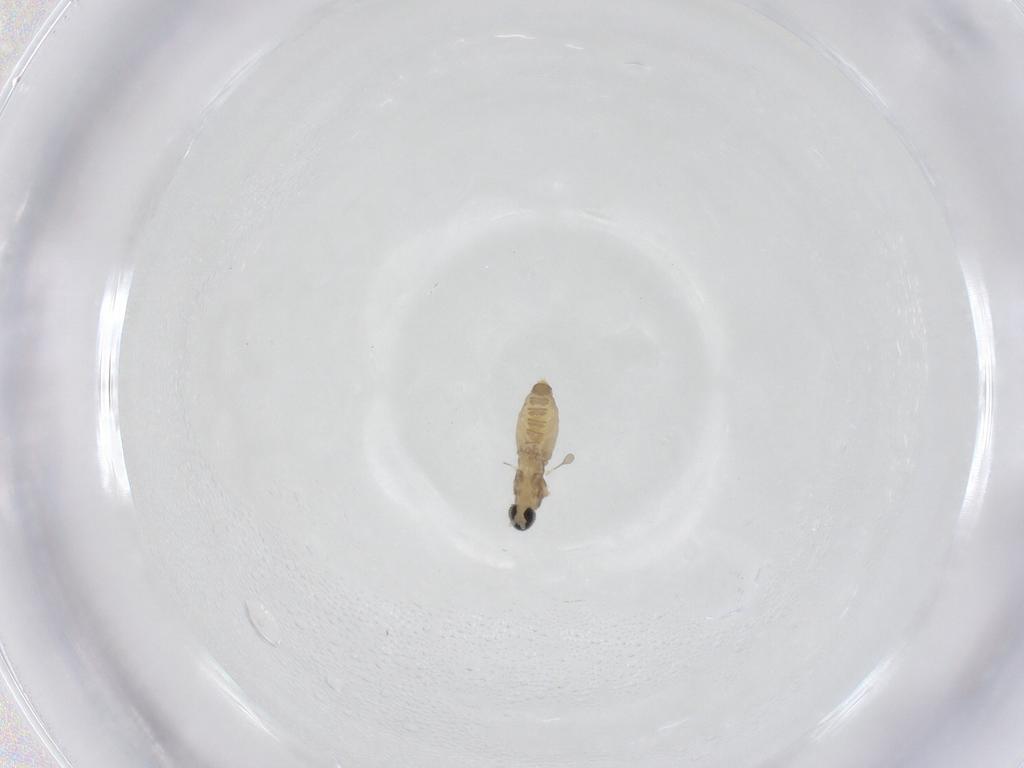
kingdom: Animalia
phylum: Arthropoda
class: Insecta
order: Diptera
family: Cecidomyiidae
